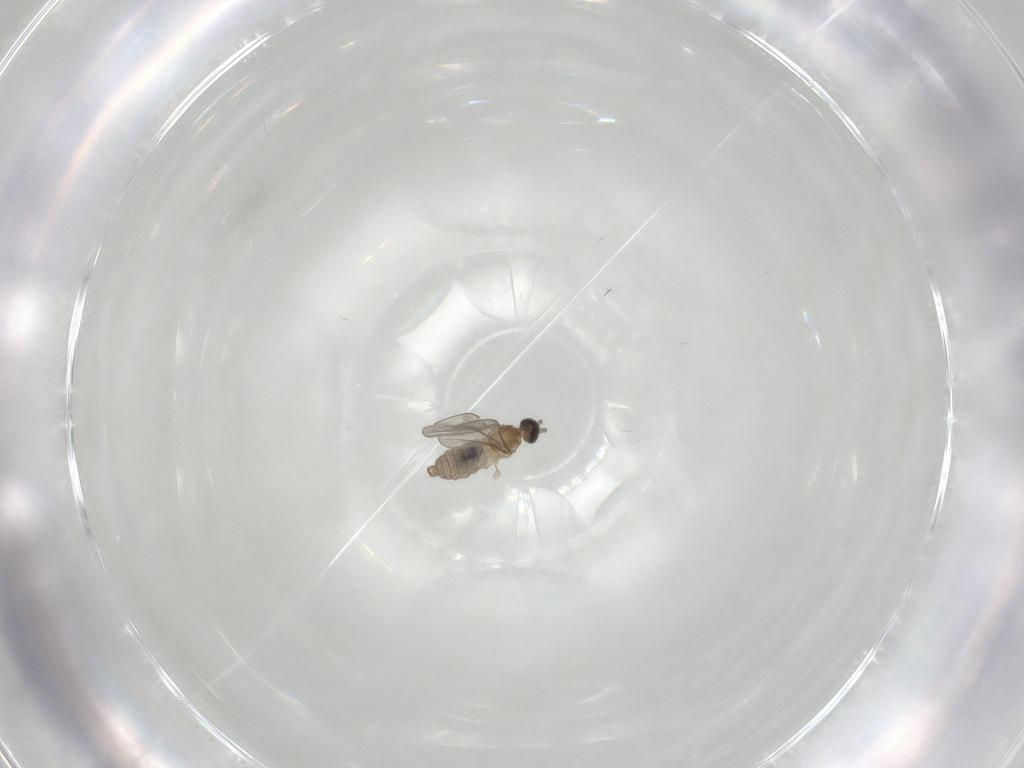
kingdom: Animalia
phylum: Arthropoda
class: Insecta
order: Diptera
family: Cecidomyiidae
